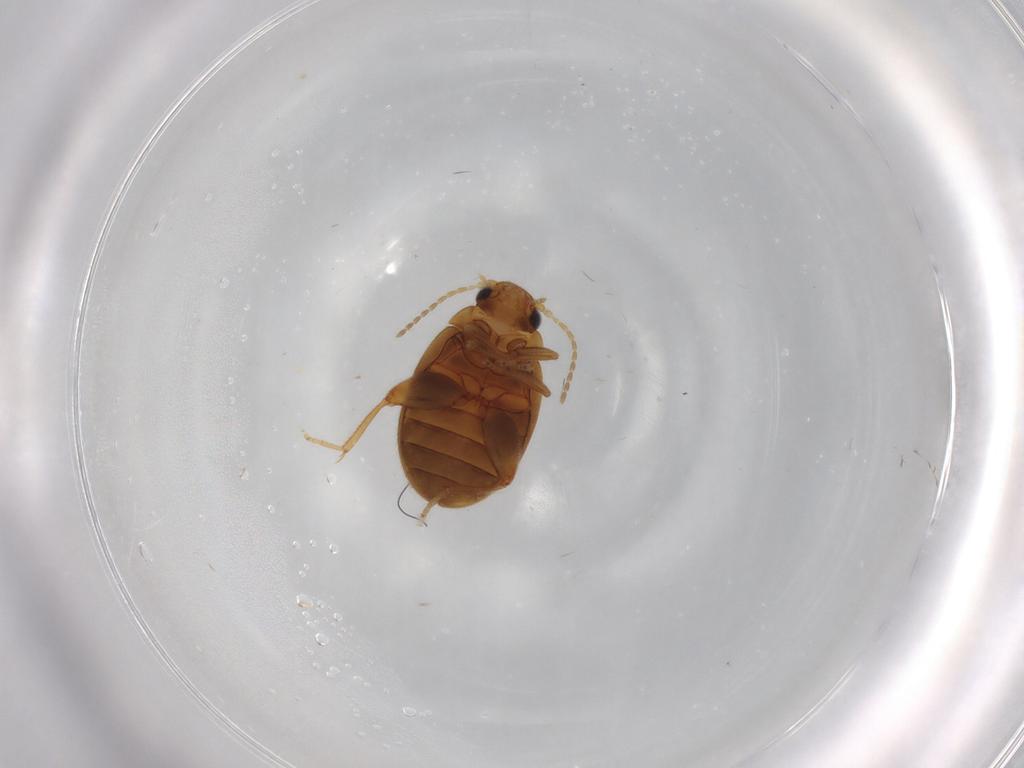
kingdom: Animalia
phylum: Arthropoda
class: Insecta
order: Coleoptera
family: Scirtidae
